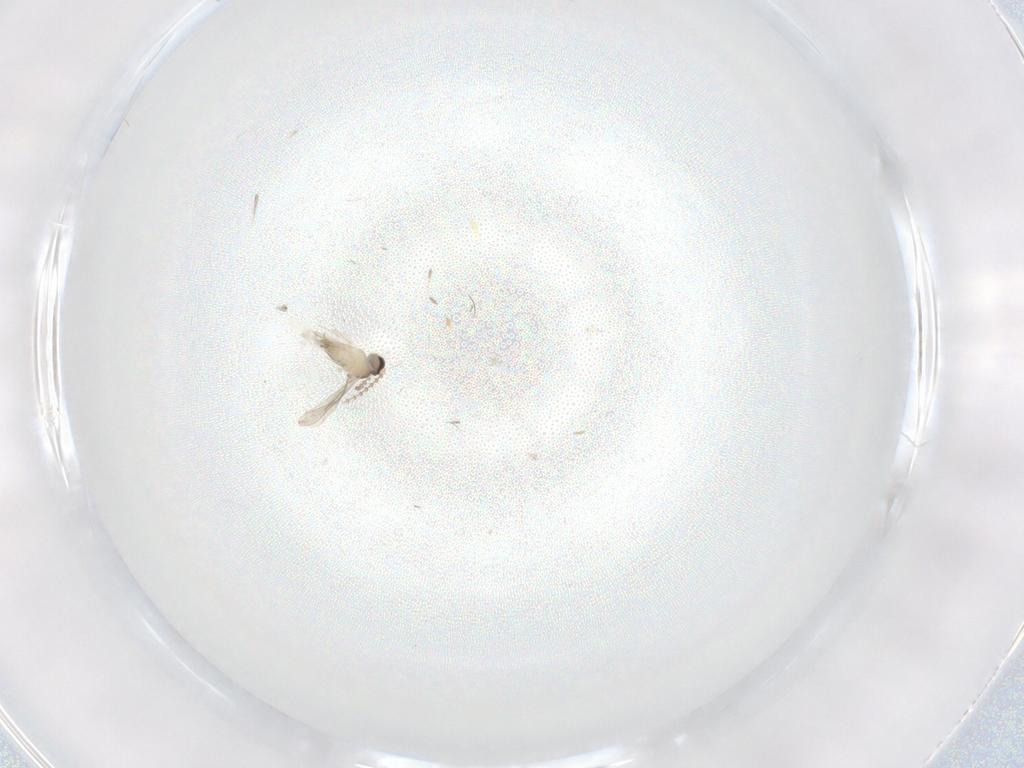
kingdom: Animalia
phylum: Arthropoda
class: Insecta
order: Diptera
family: Cecidomyiidae
